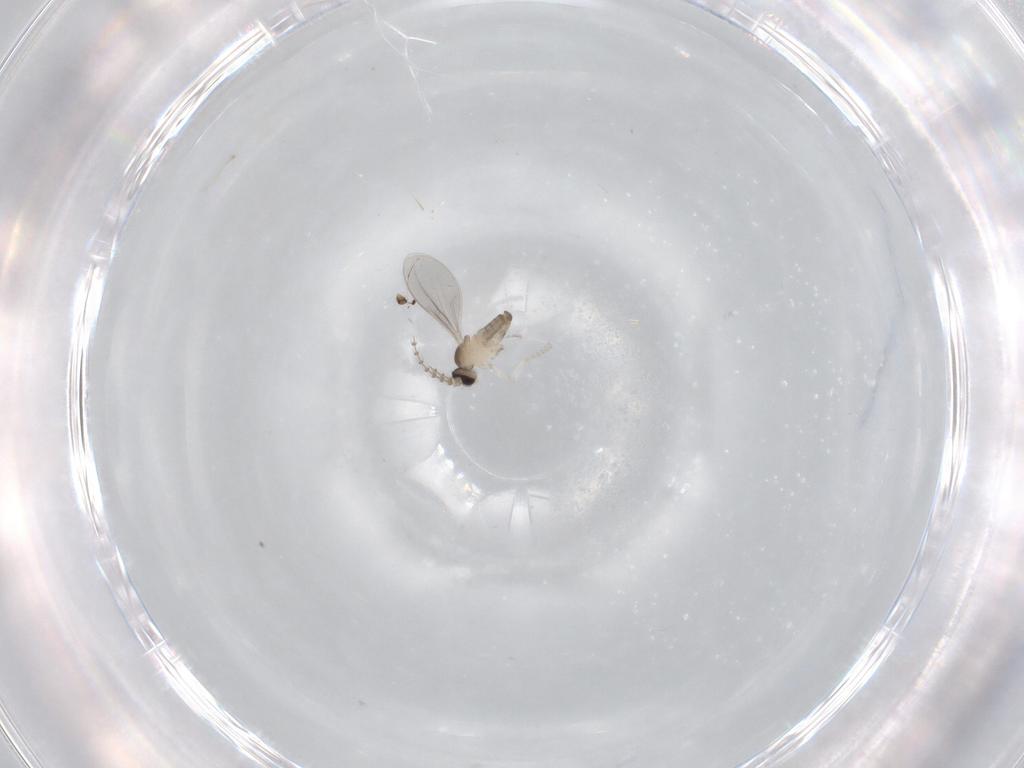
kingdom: Animalia
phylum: Arthropoda
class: Insecta
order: Diptera
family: Cecidomyiidae
